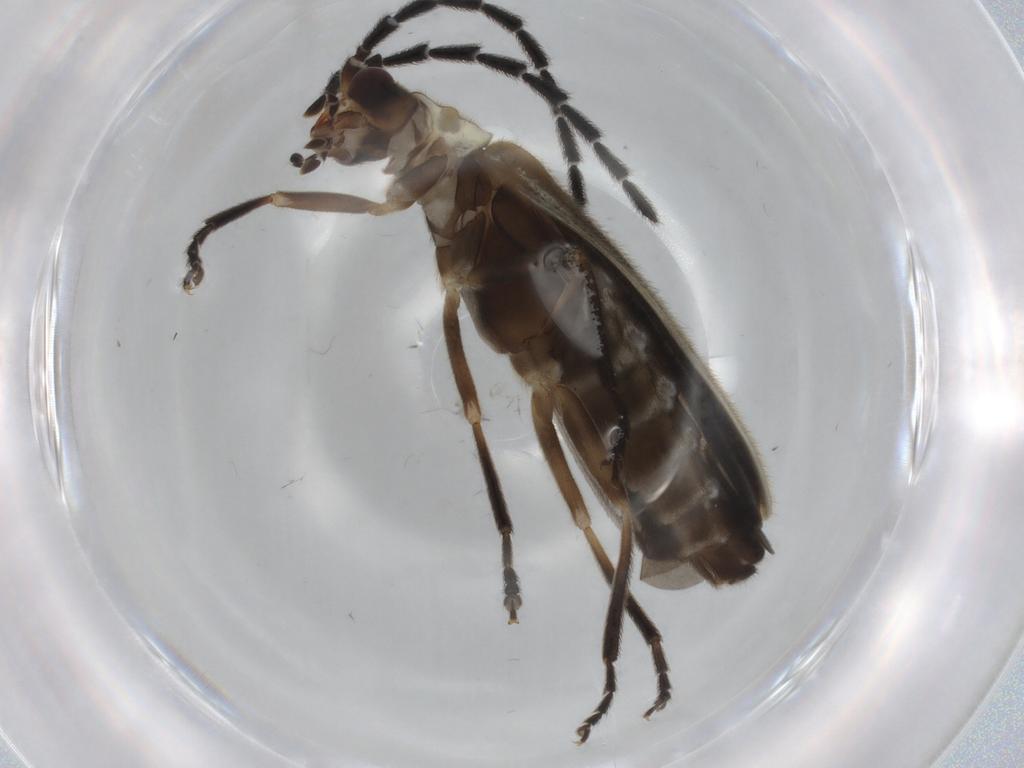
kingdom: Animalia
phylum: Arthropoda
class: Insecta
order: Coleoptera
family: Cantharidae
